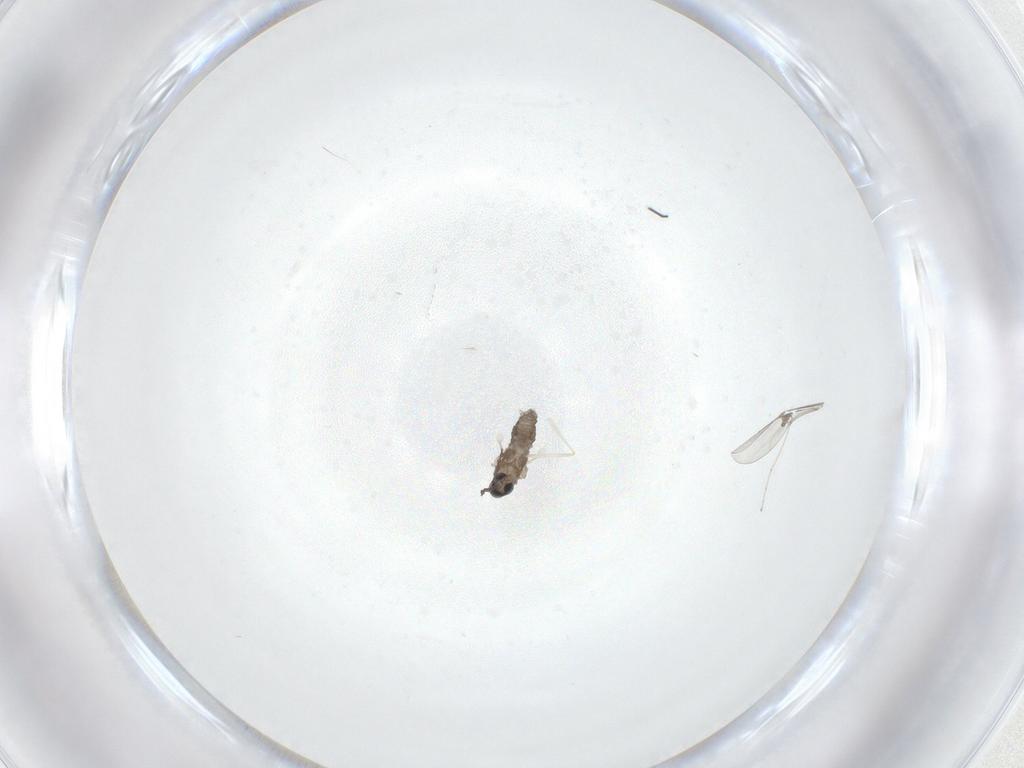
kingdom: Animalia
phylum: Arthropoda
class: Insecta
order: Diptera
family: Cecidomyiidae
